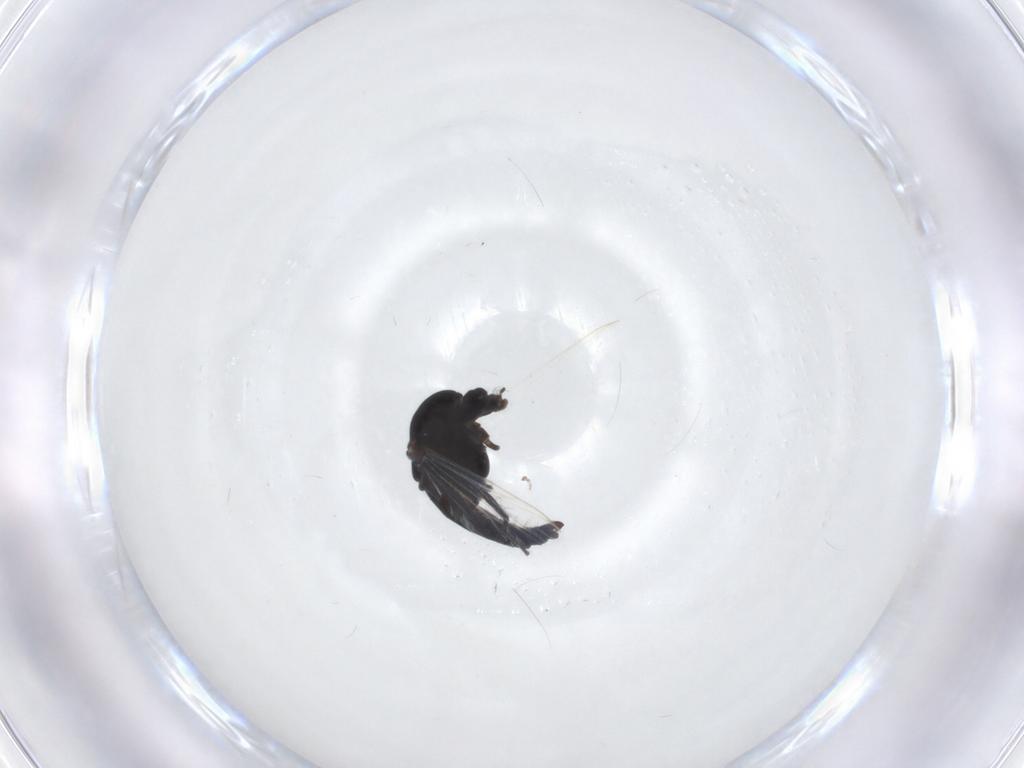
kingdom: Animalia
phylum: Arthropoda
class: Insecta
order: Diptera
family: Chironomidae
